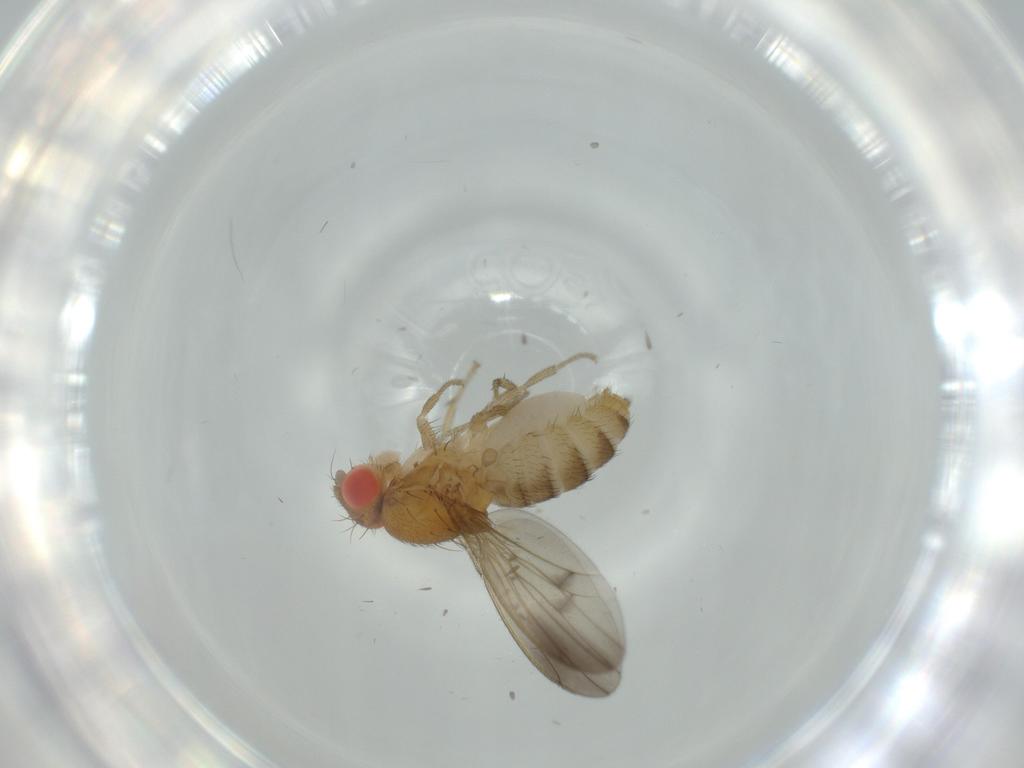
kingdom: Animalia
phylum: Arthropoda
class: Insecta
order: Diptera
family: Drosophilidae
